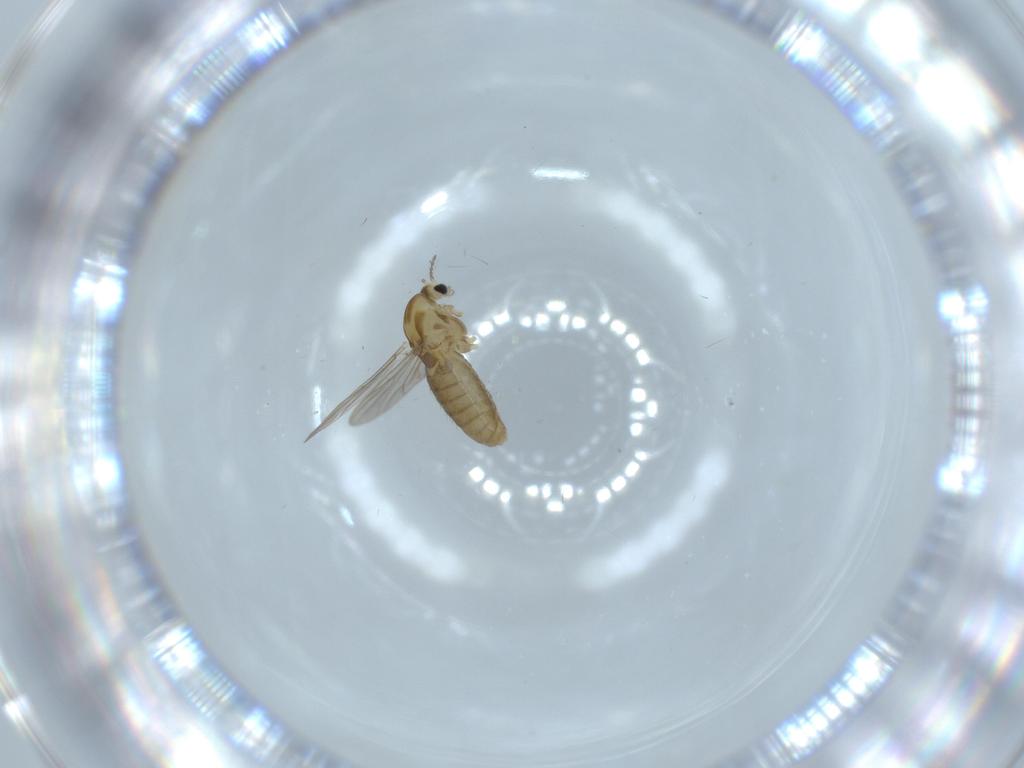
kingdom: Animalia
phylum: Arthropoda
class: Insecta
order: Diptera
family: Chironomidae
